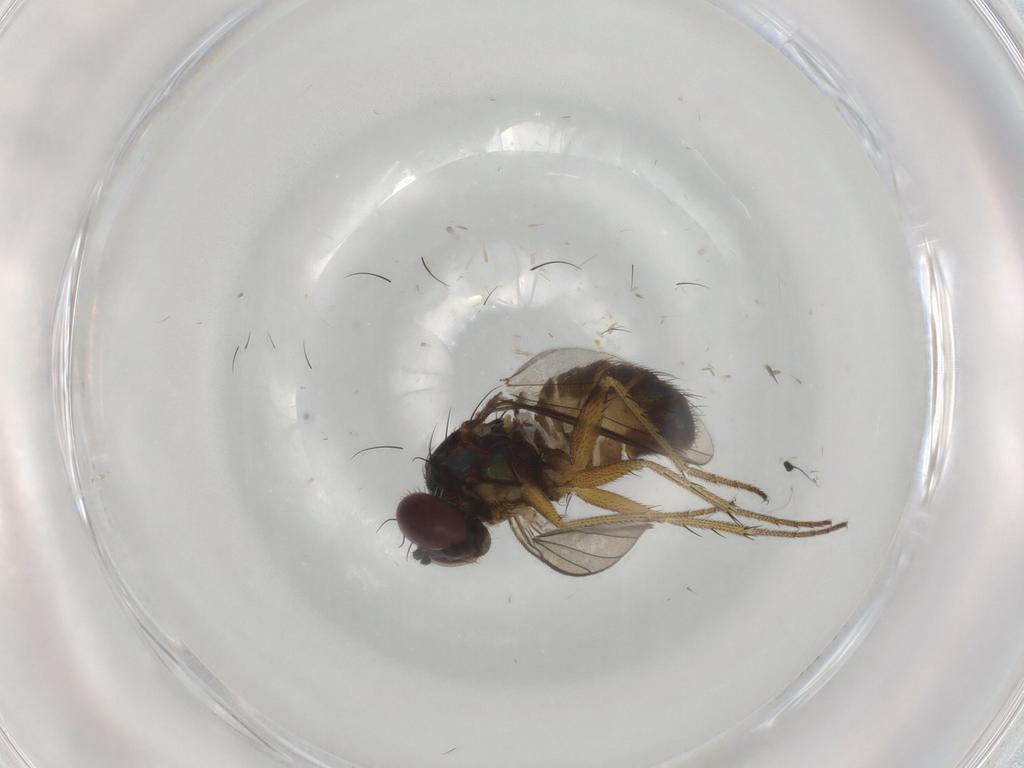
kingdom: Animalia
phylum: Arthropoda
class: Insecta
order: Diptera
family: Dolichopodidae
